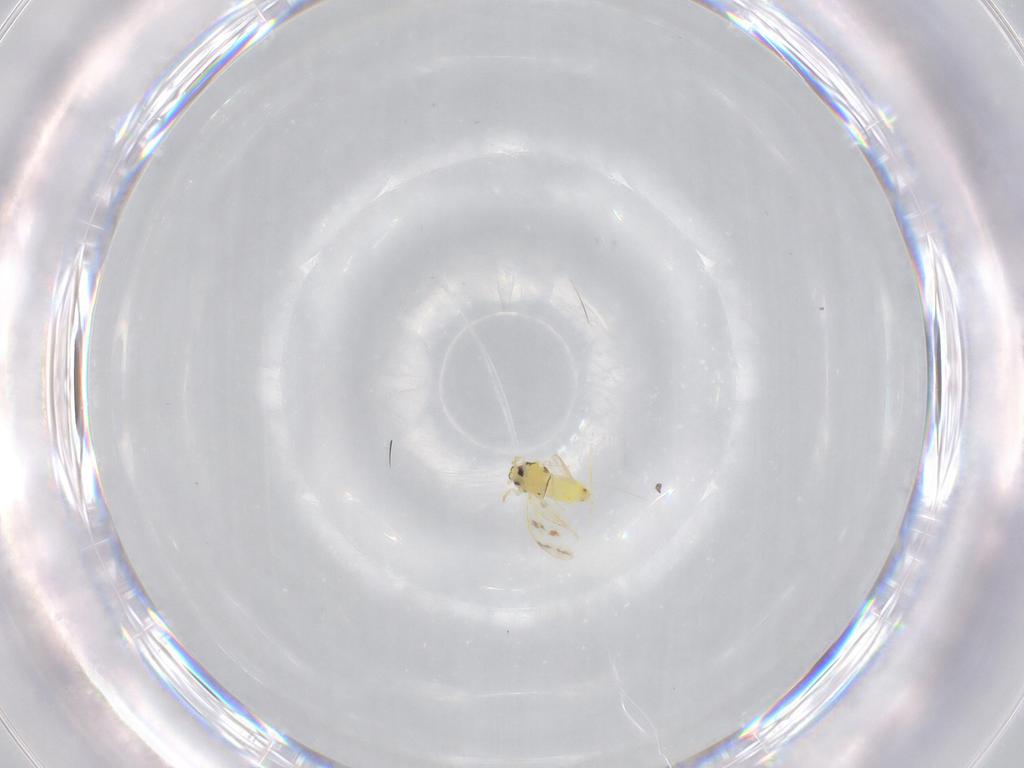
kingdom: Animalia
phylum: Arthropoda
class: Insecta
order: Hemiptera
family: Aleyrodidae
